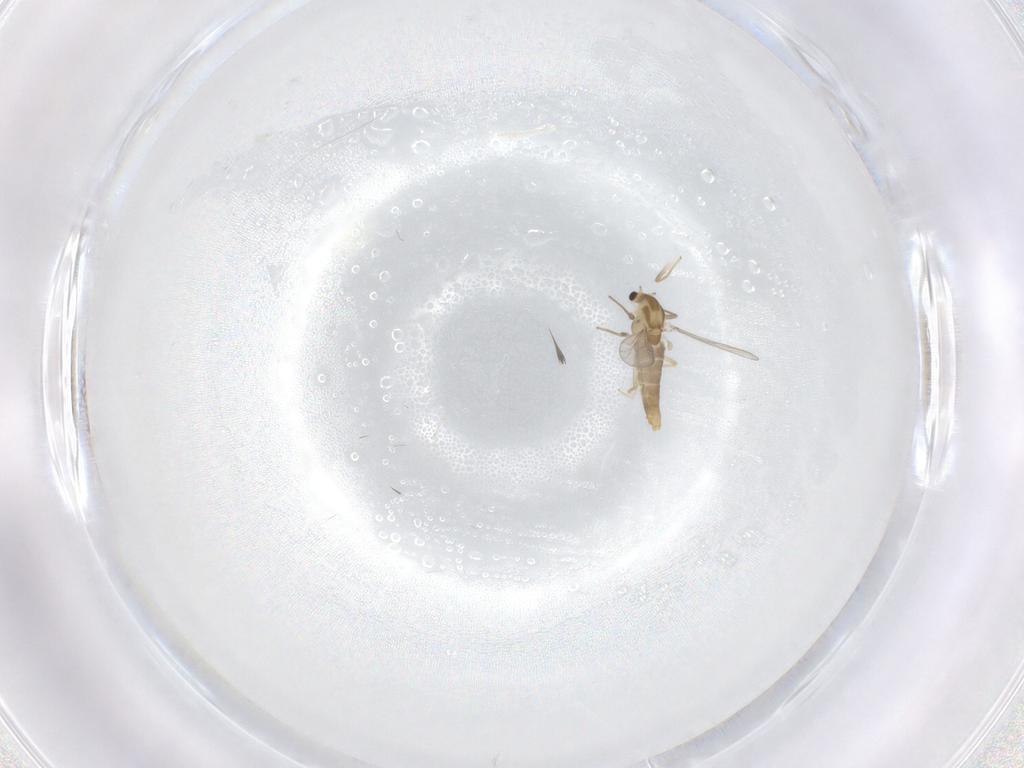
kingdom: Animalia
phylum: Arthropoda
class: Insecta
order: Diptera
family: Chironomidae
